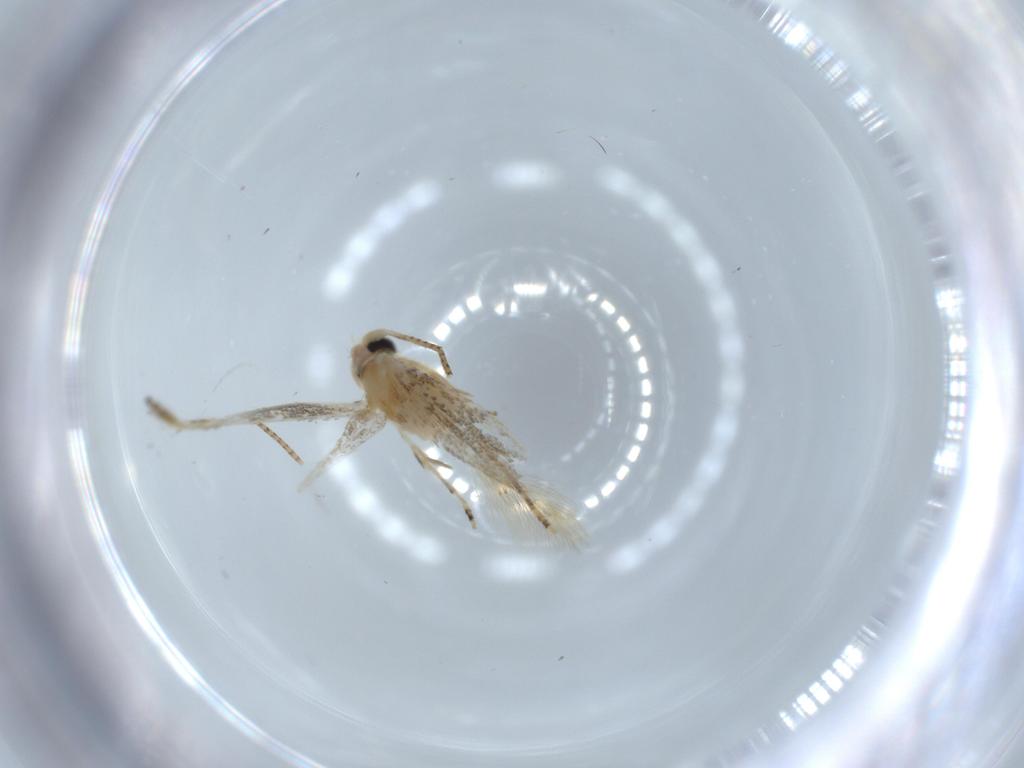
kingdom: Animalia
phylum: Arthropoda
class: Insecta
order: Lepidoptera
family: Bucculatricidae
